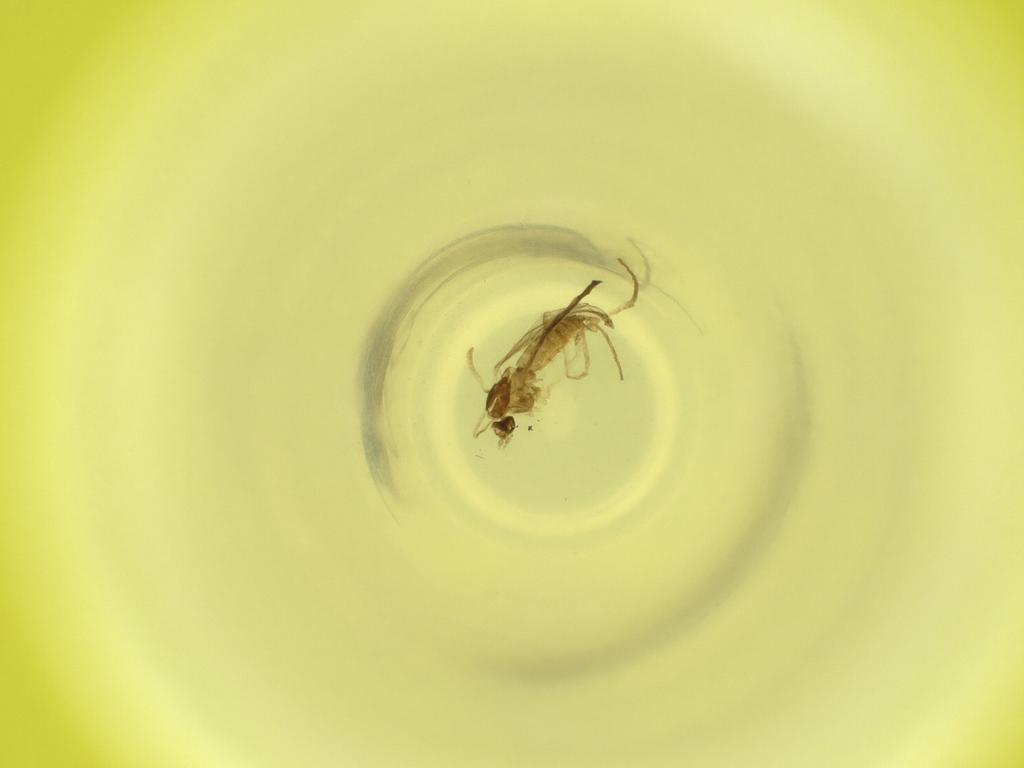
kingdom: Animalia
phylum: Arthropoda
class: Insecta
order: Diptera
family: Cecidomyiidae
